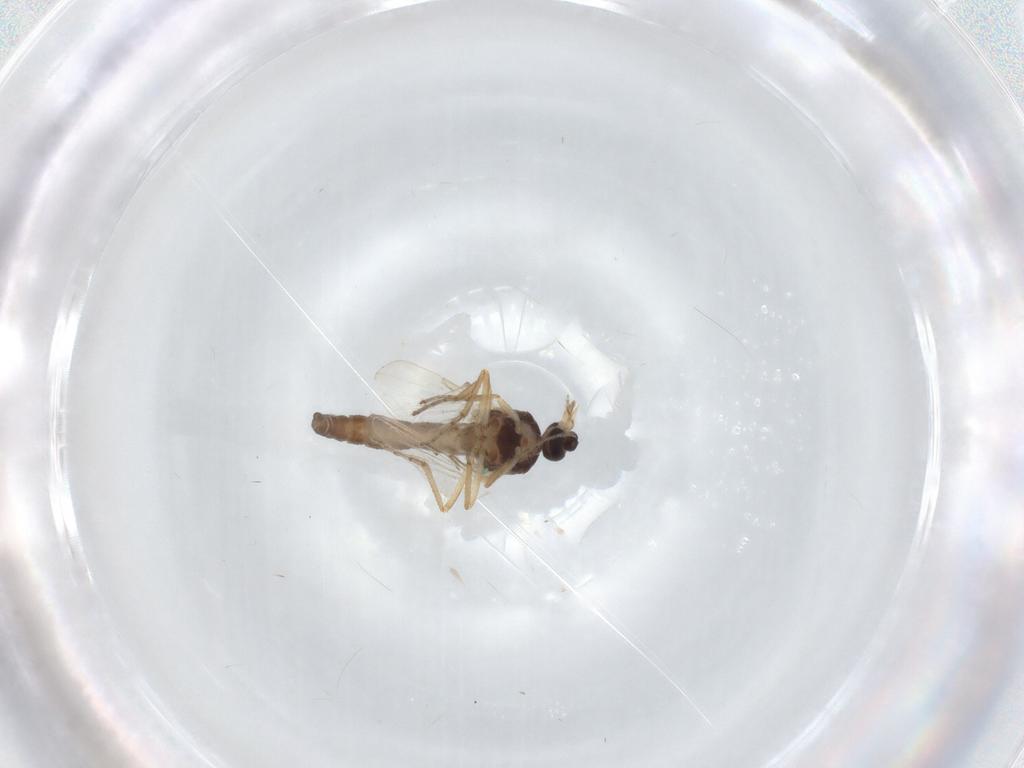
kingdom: Animalia
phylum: Arthropoda
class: Insecta
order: Diptera
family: Ceratopogonidae
